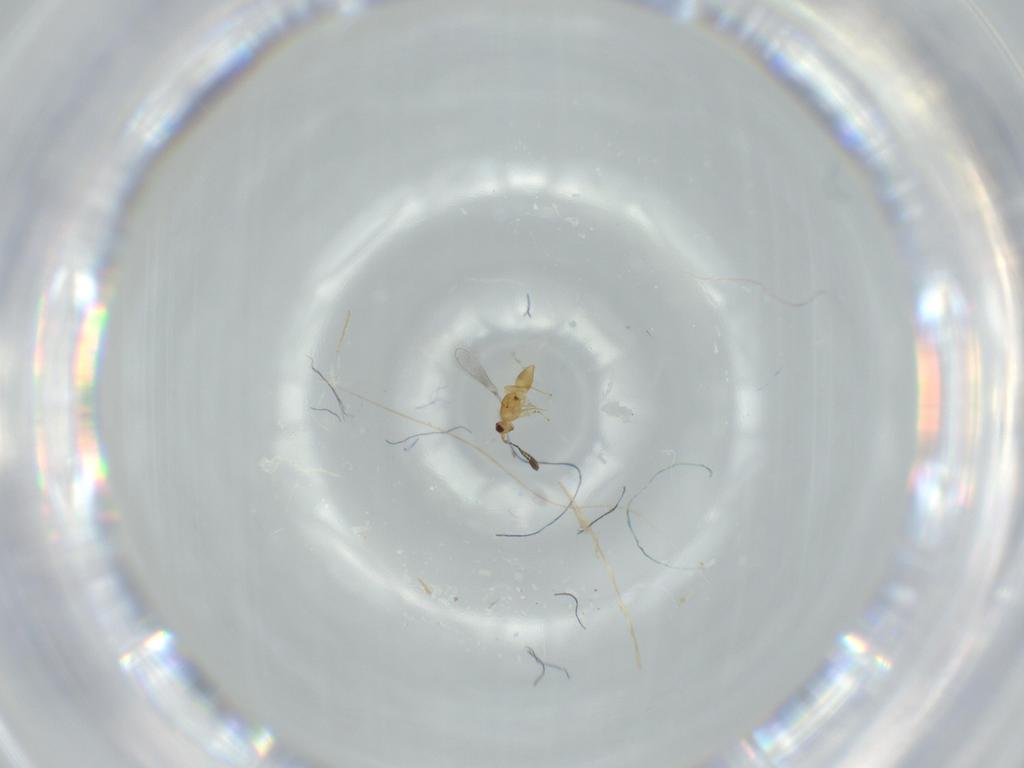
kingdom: Animalia
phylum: Arthropoda
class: Insecta
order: Hymenoptera
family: Mymaridae
